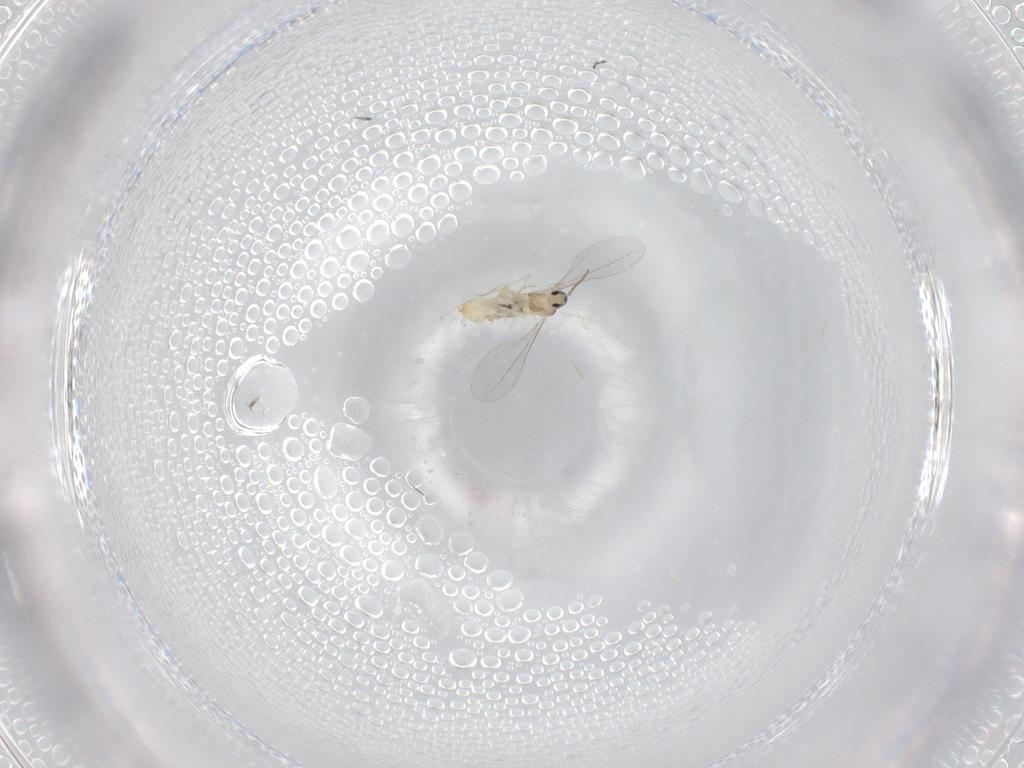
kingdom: Animalia
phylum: Arthropoda
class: Insecta
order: Diptera
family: Cecidomyiidae
